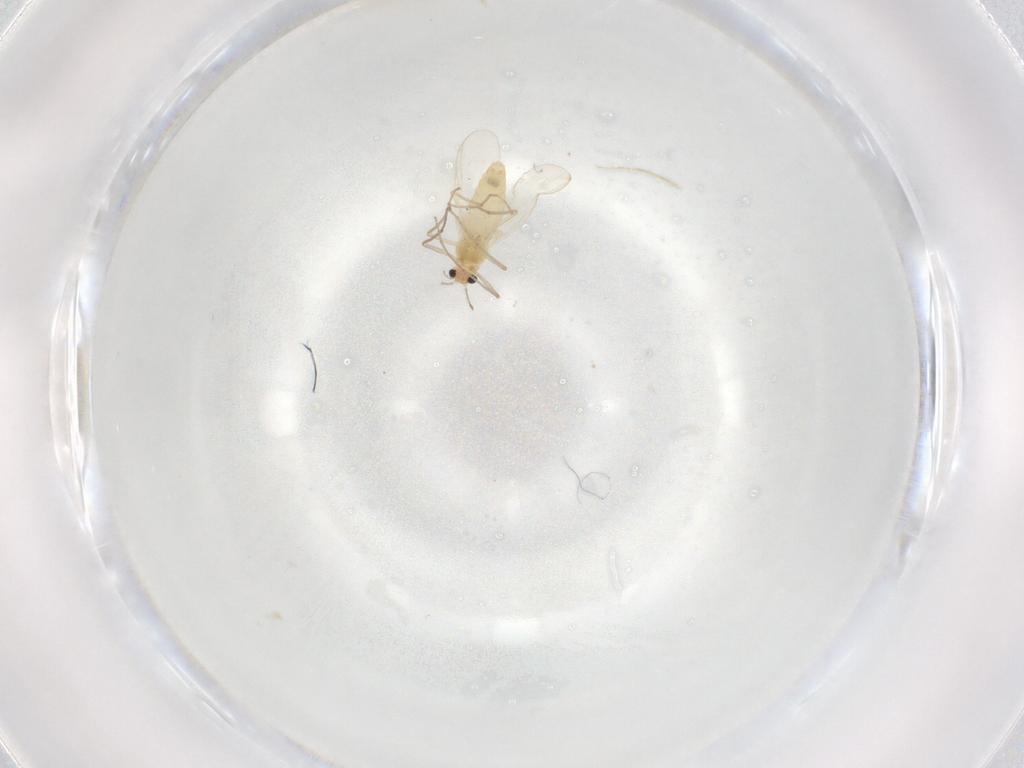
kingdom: Animalia
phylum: Arthropoda
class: Insecta
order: Diptera
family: Chironomidae
